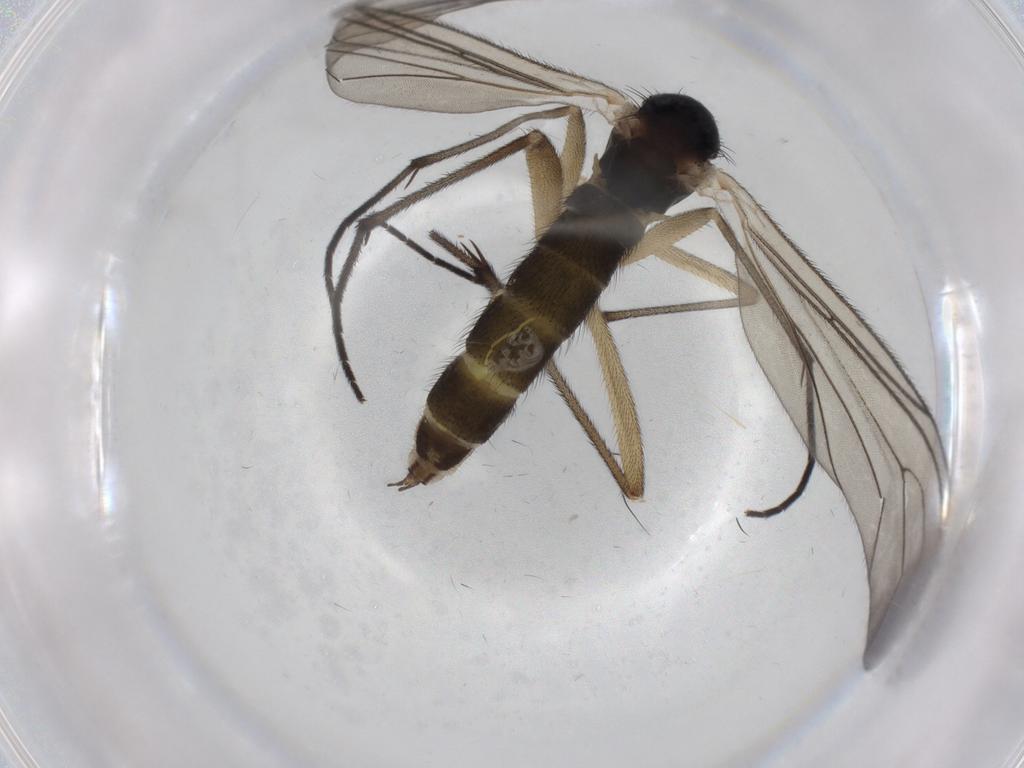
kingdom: Animalia
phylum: Arthropoda
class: Insecta
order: Diptera
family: Sciaridae
